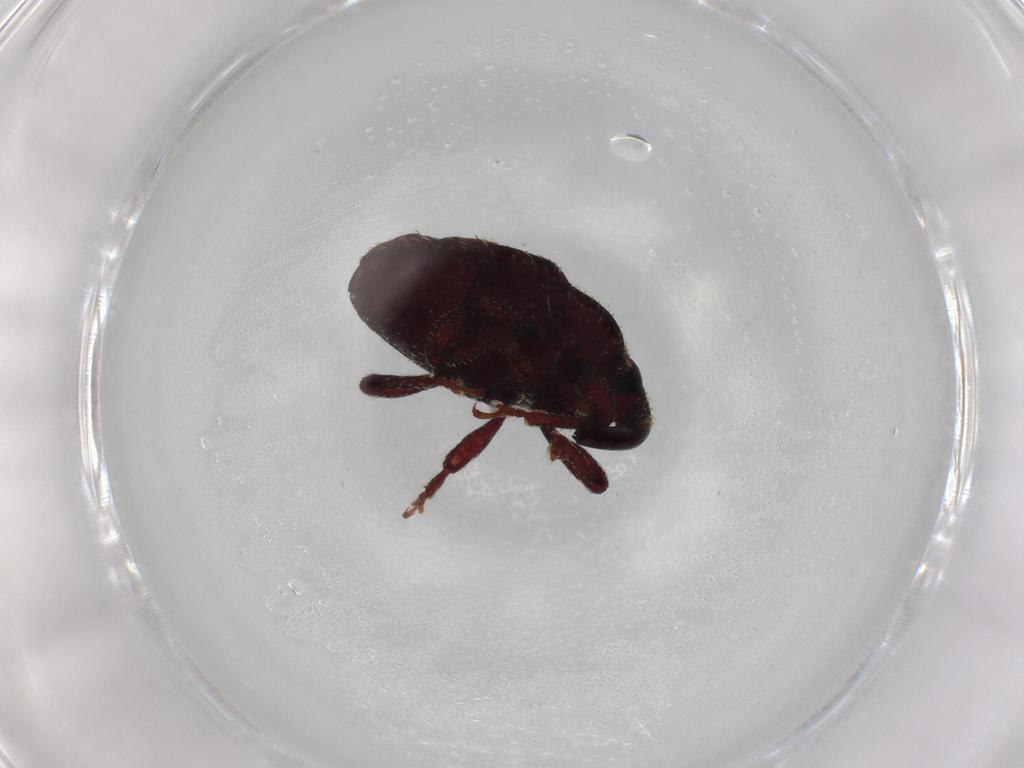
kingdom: Animalia
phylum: Arthropoda
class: Insecta
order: Coleoptera
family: Curculionidae
